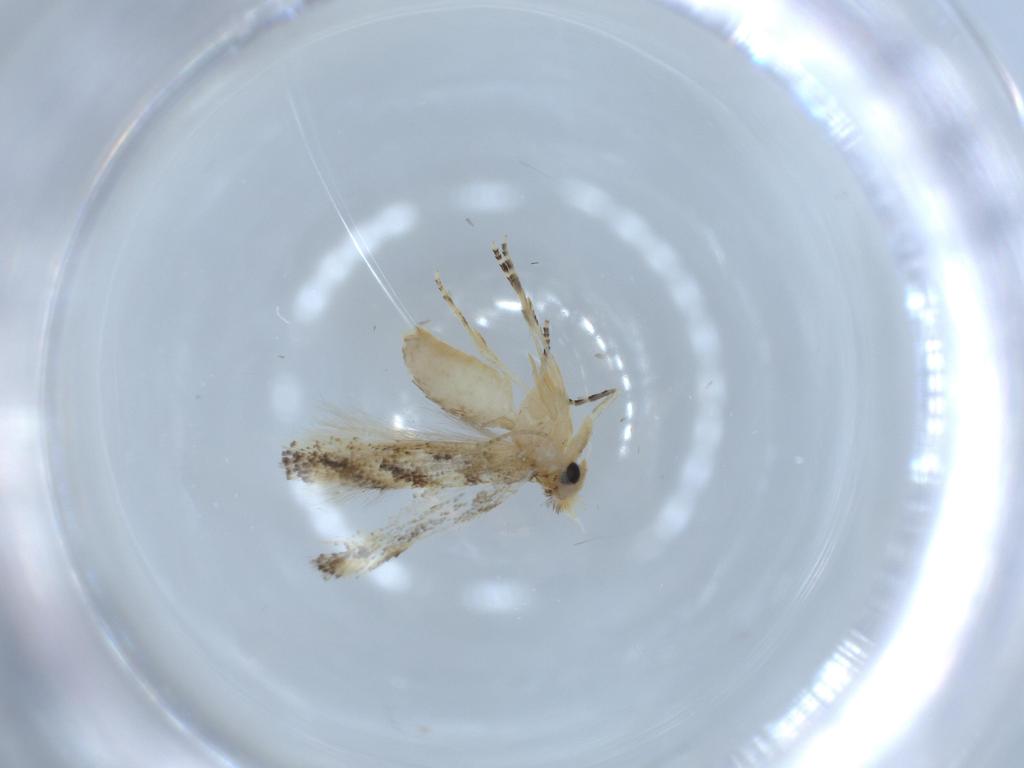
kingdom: Animalia
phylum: Arthropoda
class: Insecta
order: Lepidoptera
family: Bucculatricidae
